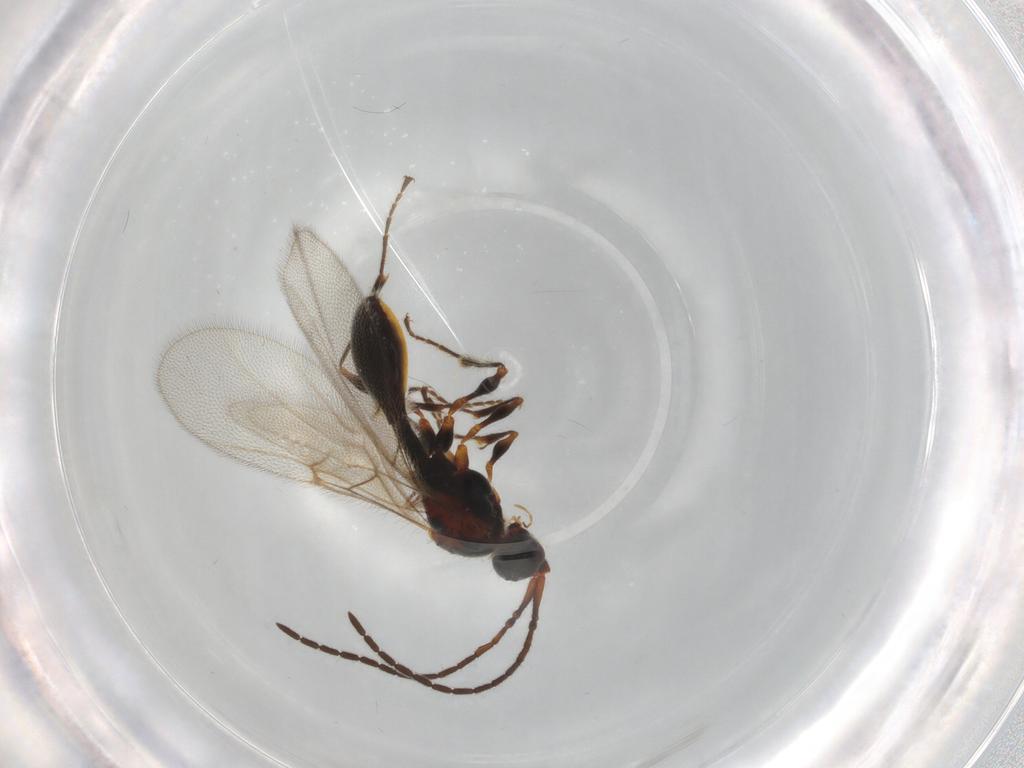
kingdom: Animalia
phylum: Arthropoda
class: Insecta
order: Hymenoptera
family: Diapriidae
